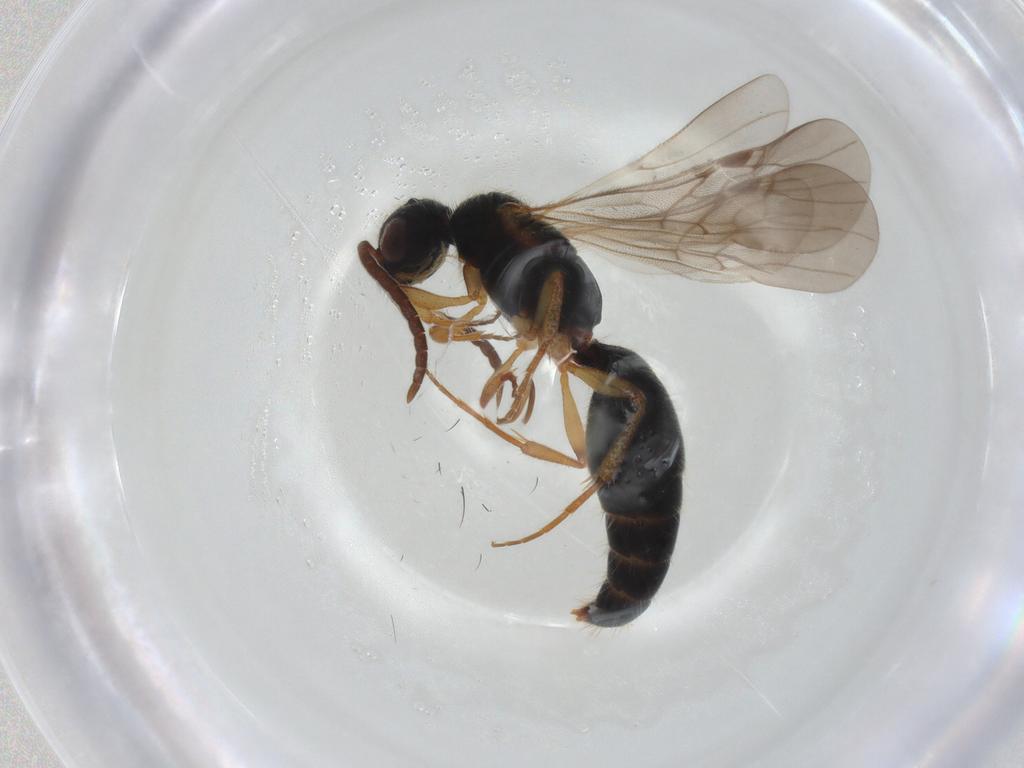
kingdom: Animalia
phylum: Arthropoda
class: Insecta
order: Hymenoptera
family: Mutillidae
